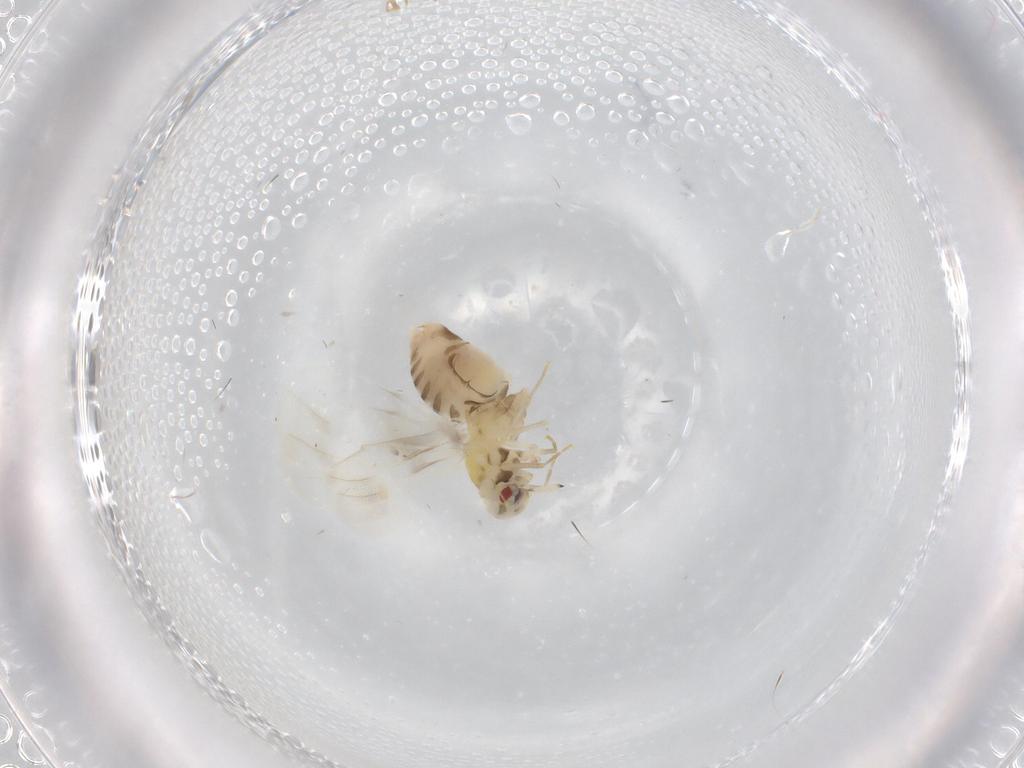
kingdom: Animalia
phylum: Arthropoda
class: Insecta
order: Hemiptera
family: Aleyrodidae
